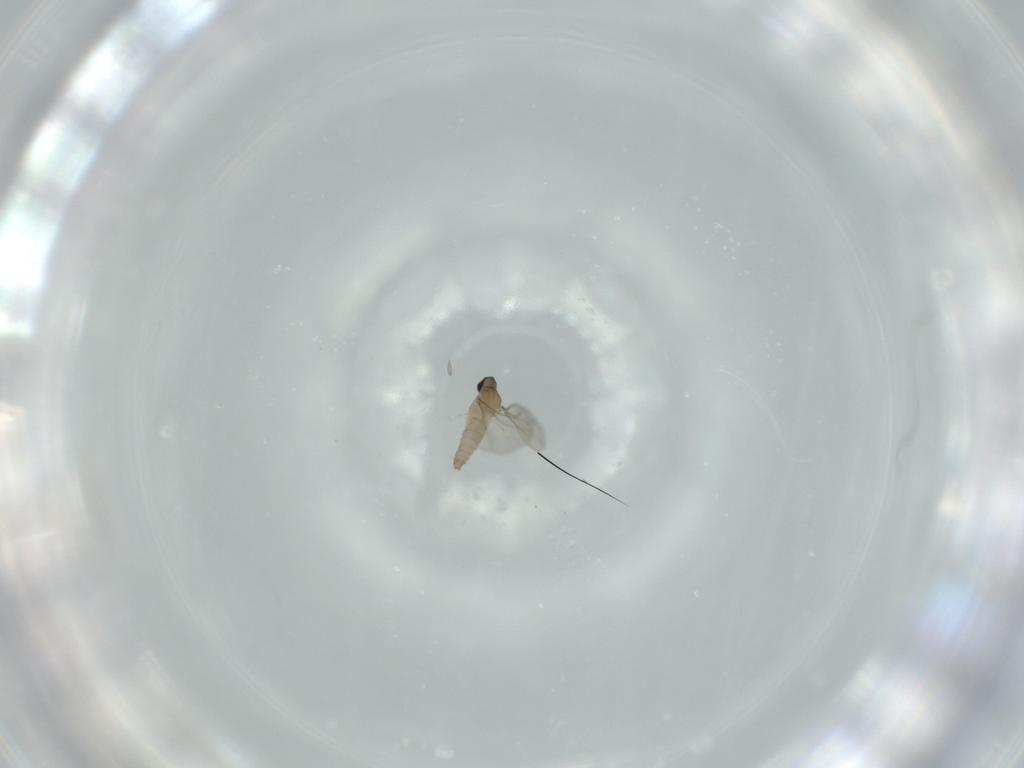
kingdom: Animalia
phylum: Arthropoda
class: Insecta
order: Diptera
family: Cecidomyiidae
